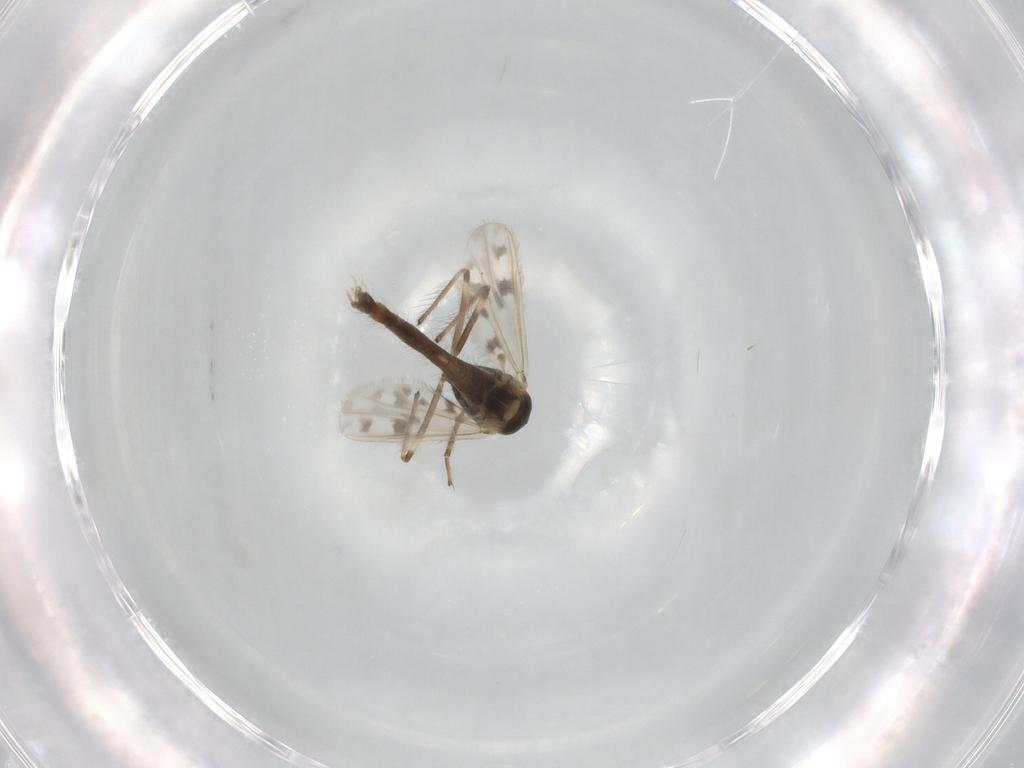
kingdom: Animalia
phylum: Arthropoda
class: Insecta
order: Diptera
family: Chironomidae
